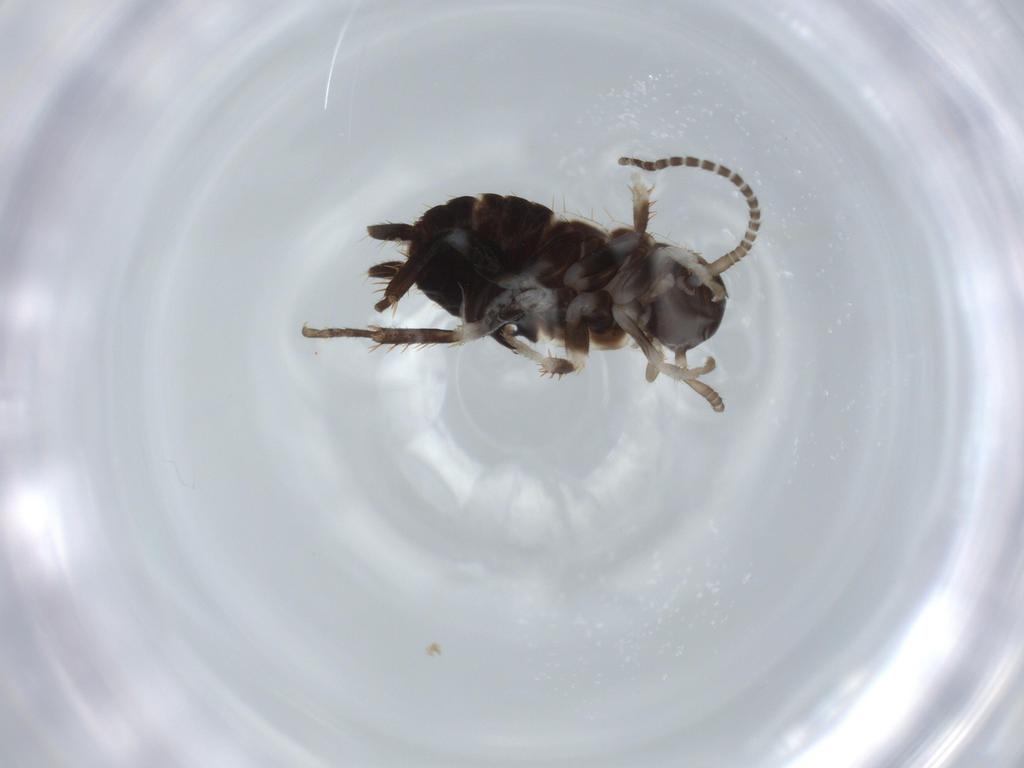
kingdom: Animalia
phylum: Arthropoda
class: Insecta
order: Blattodea
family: Ectobiidae
